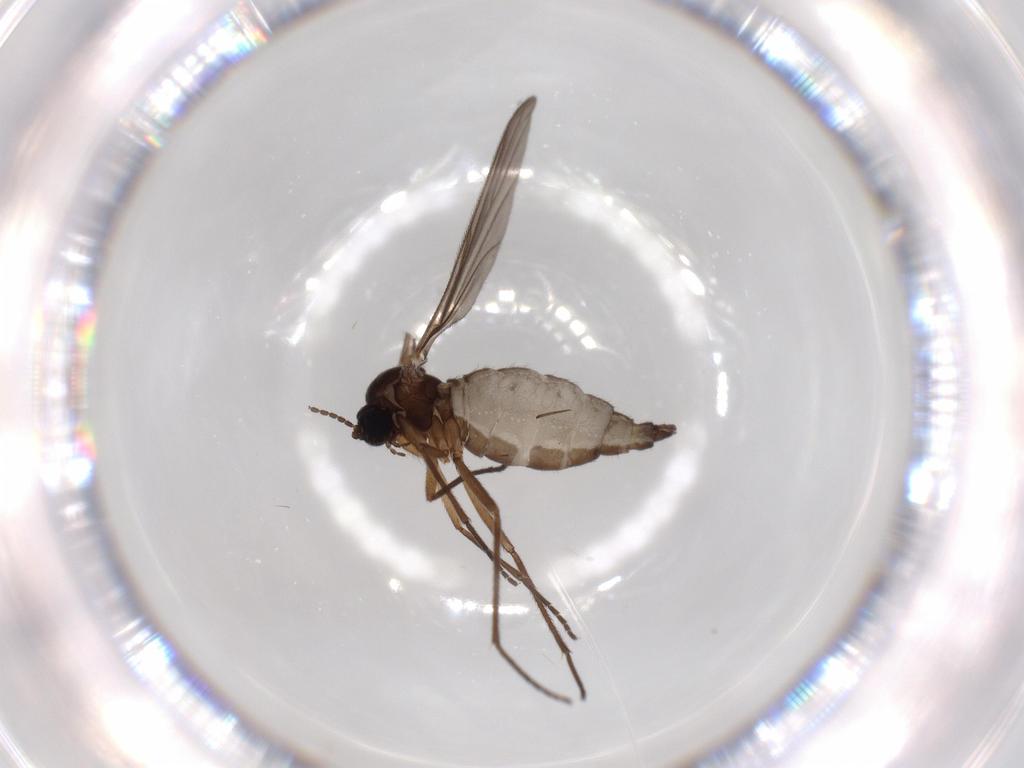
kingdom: Animalia
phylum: Arthropoda
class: Insecta
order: Diptera
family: Sciaridae
